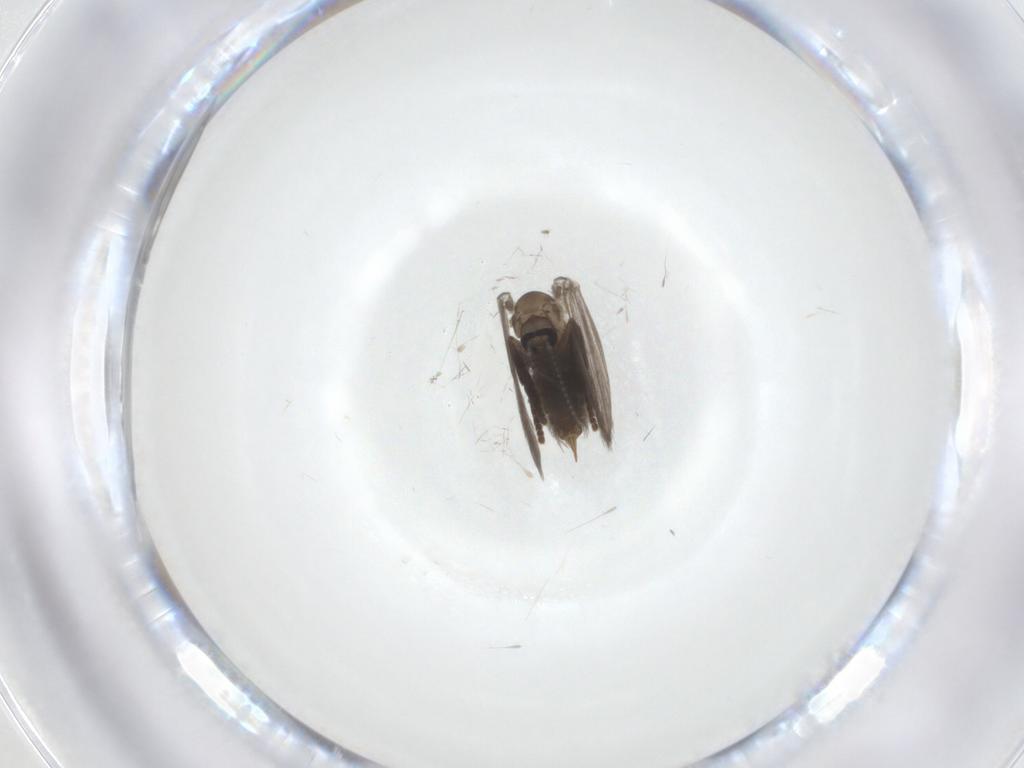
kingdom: Animalia
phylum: Arthropoda
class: Insecta
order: Diptera
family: Cecidomyiidae
